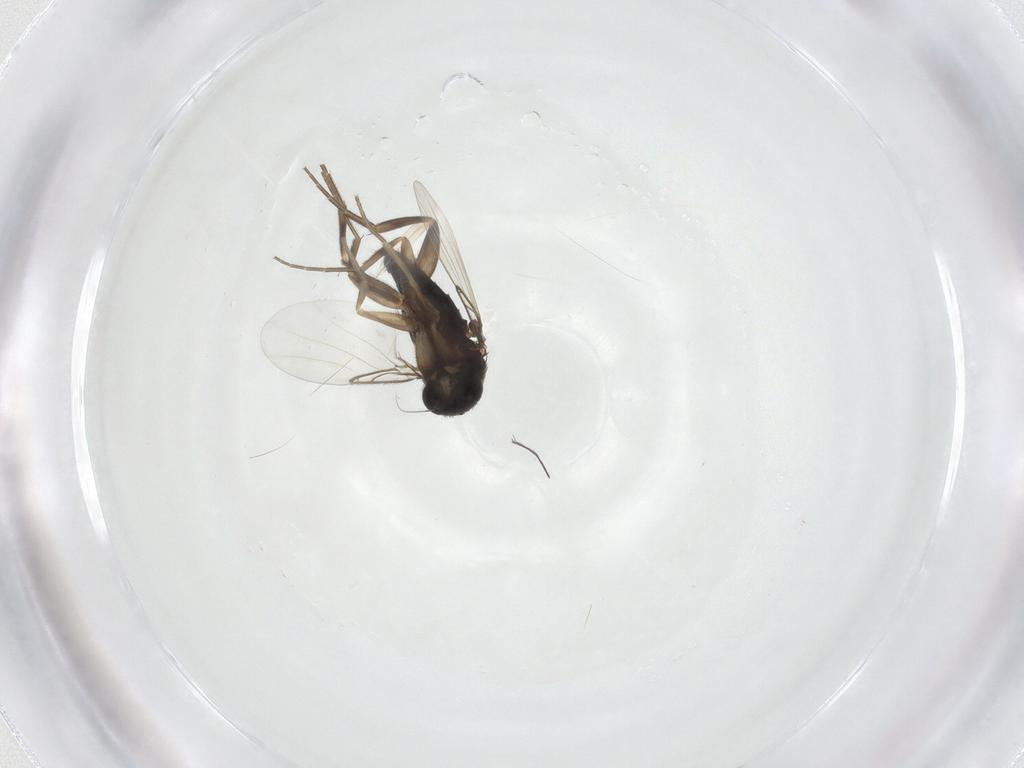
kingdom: Animalia
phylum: Arthropoda
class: Insecta
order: Diptera
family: Phoridae
